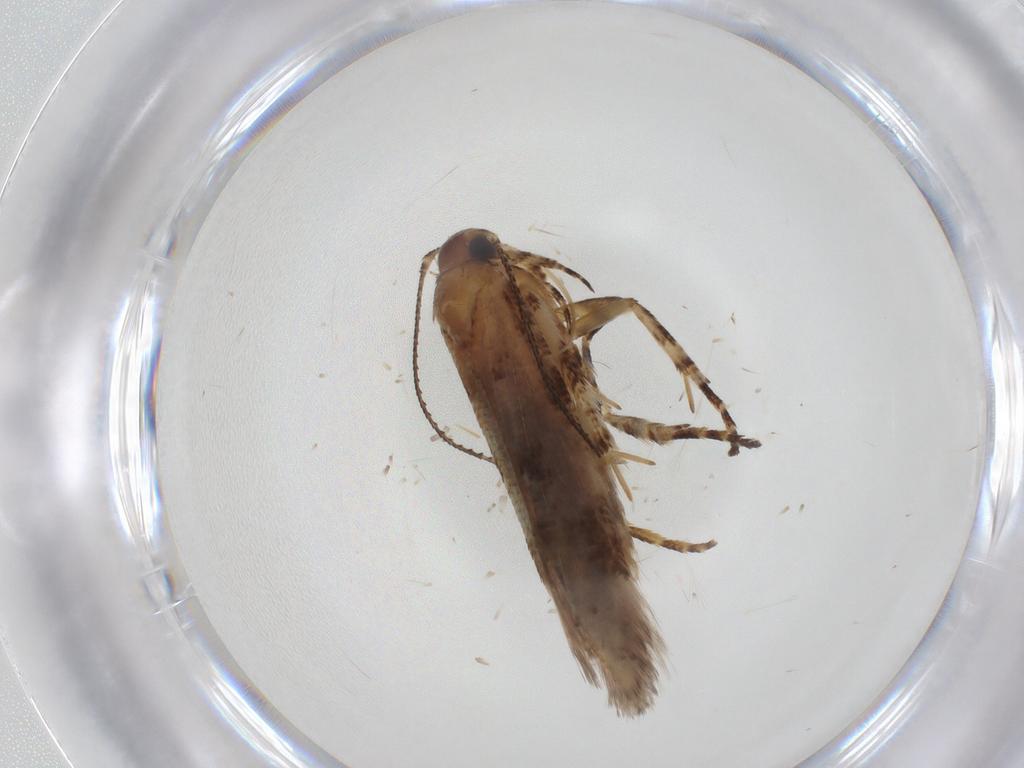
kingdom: Animalia
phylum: Arthropoda
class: Insecta
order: Lepidoptera
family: Gelechiidae
